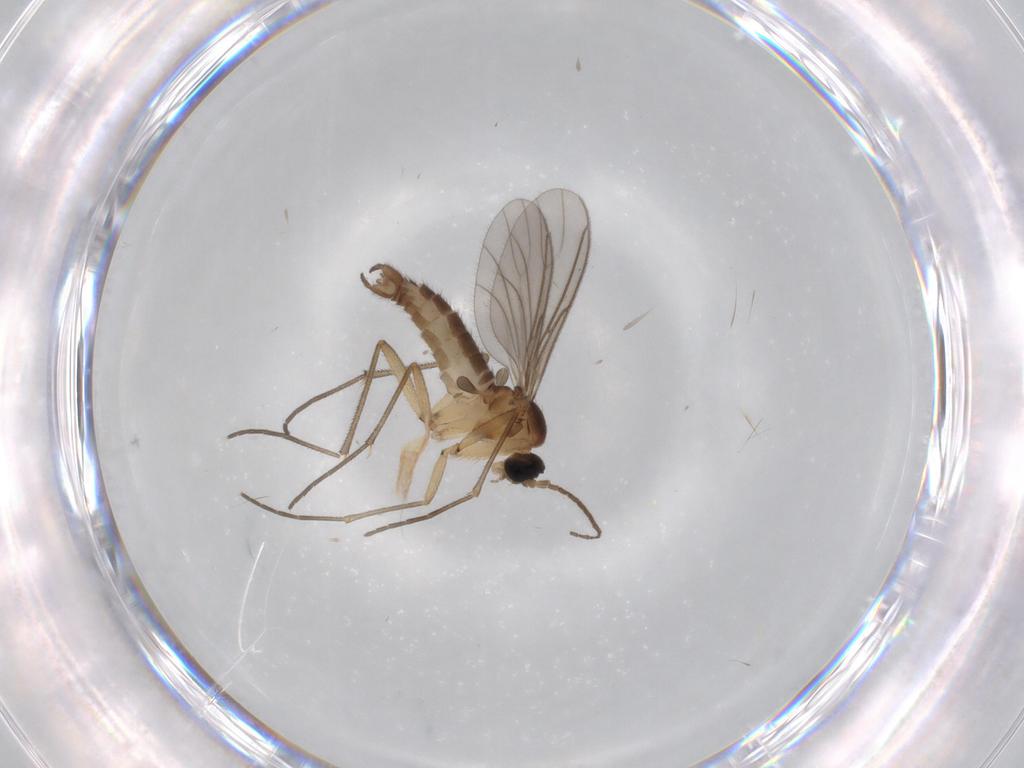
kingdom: Animalia
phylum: Arthropoda
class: Insecta
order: Diptera
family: Sciaridae
